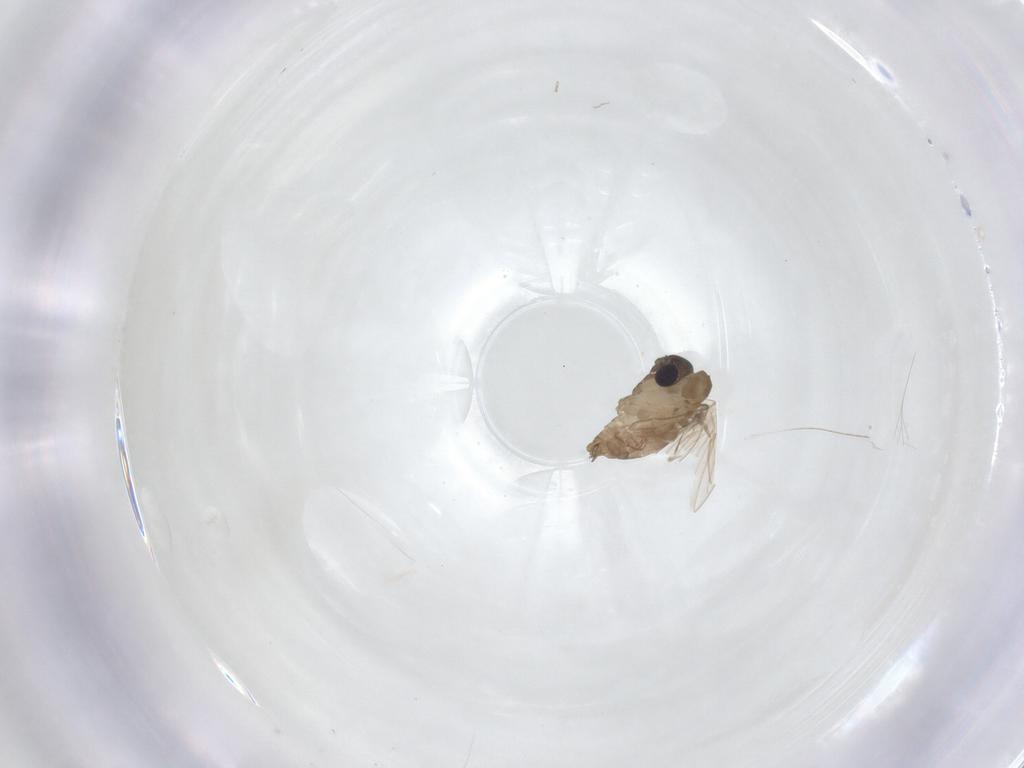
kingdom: Animalia
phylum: Arthropoda
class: Insecta
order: Diptera
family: Psychodidae
